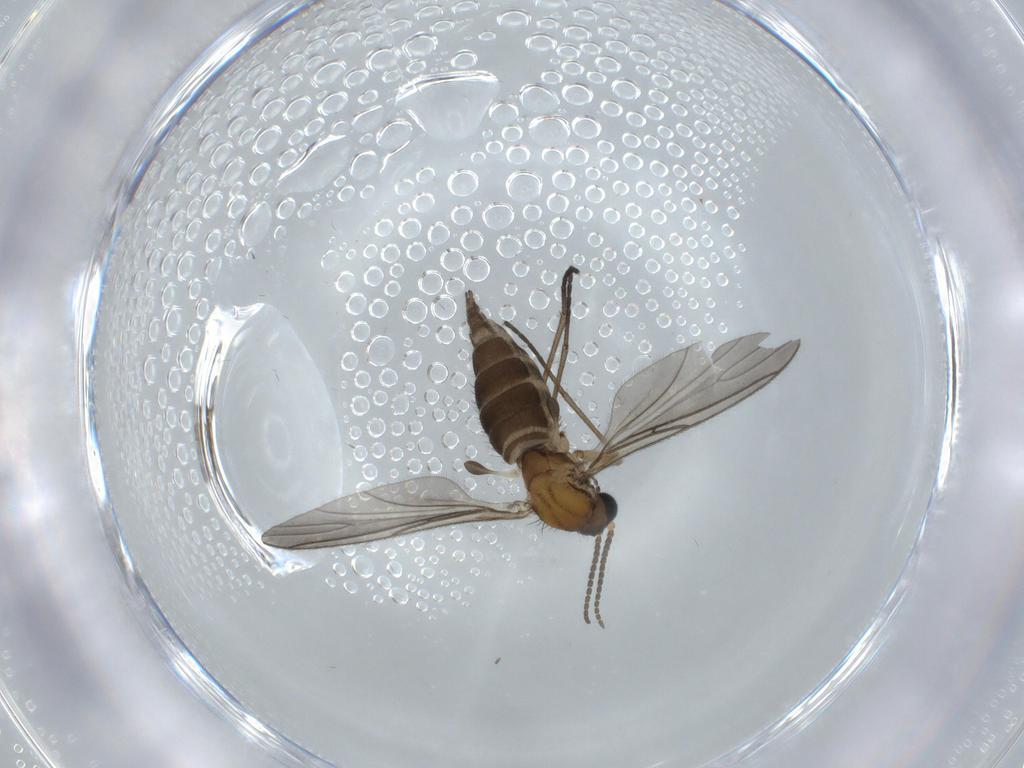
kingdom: Animalia
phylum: Arthropoda
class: Insecta
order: Diptera
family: Sciaridae
